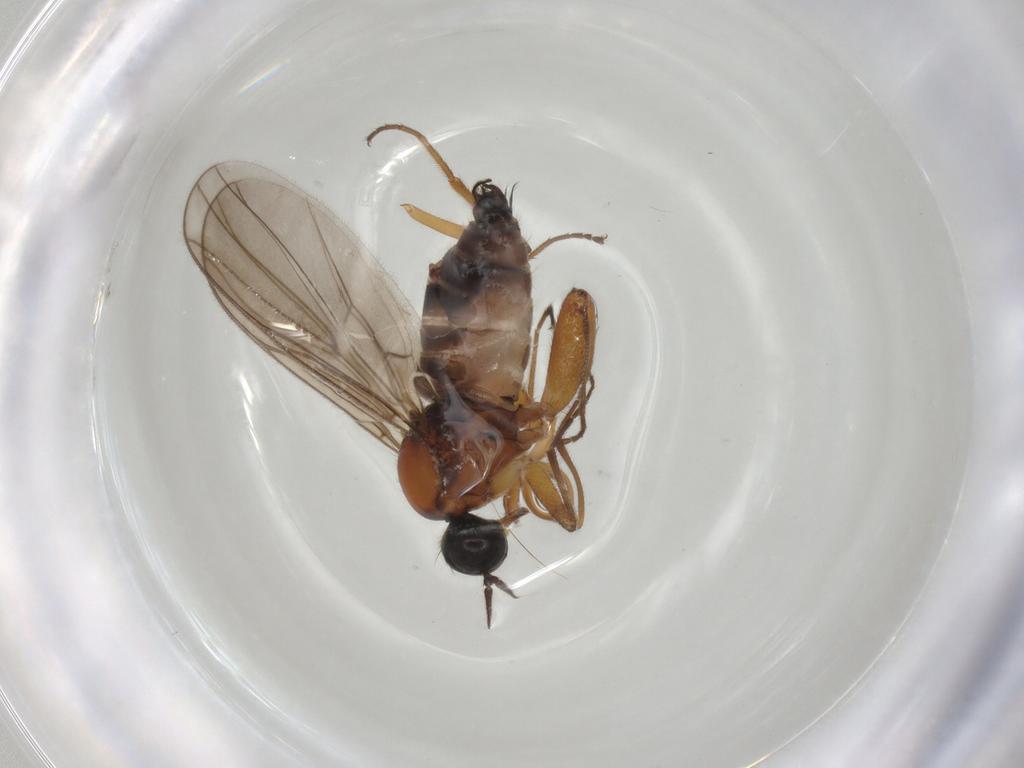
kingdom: Animalia
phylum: Arthropoda
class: Insecta
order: Diptera
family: Hybotidae
